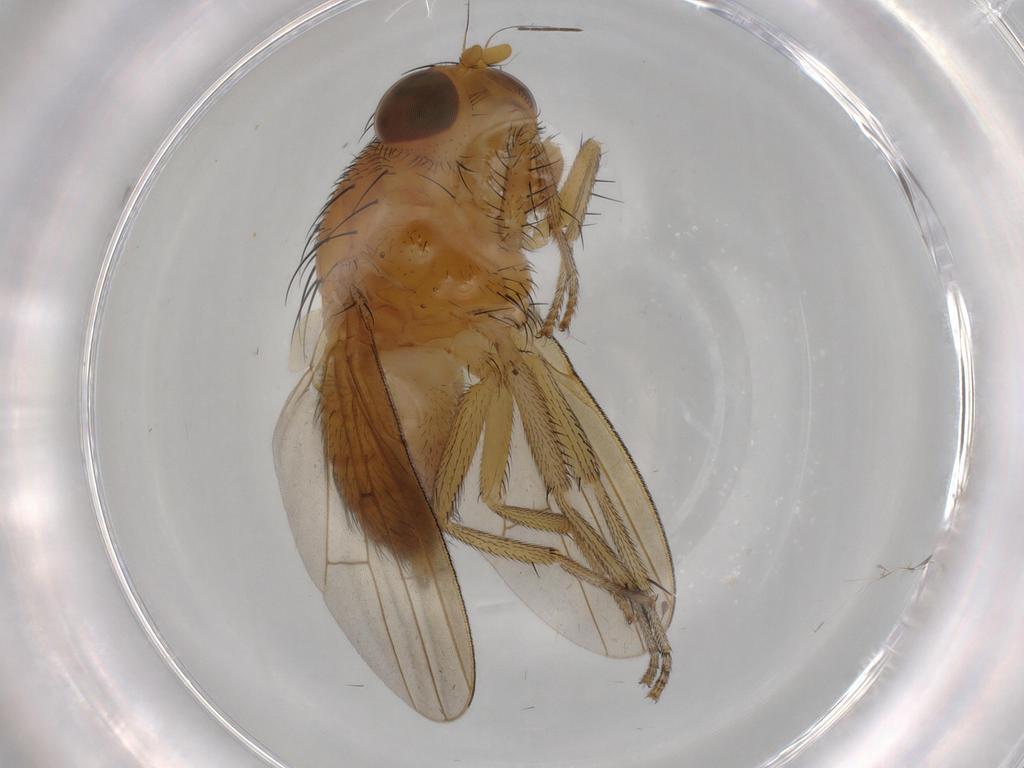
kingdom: Animalia
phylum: Arthropoda
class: Insecta
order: Diptera
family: Cecidomyiidae
